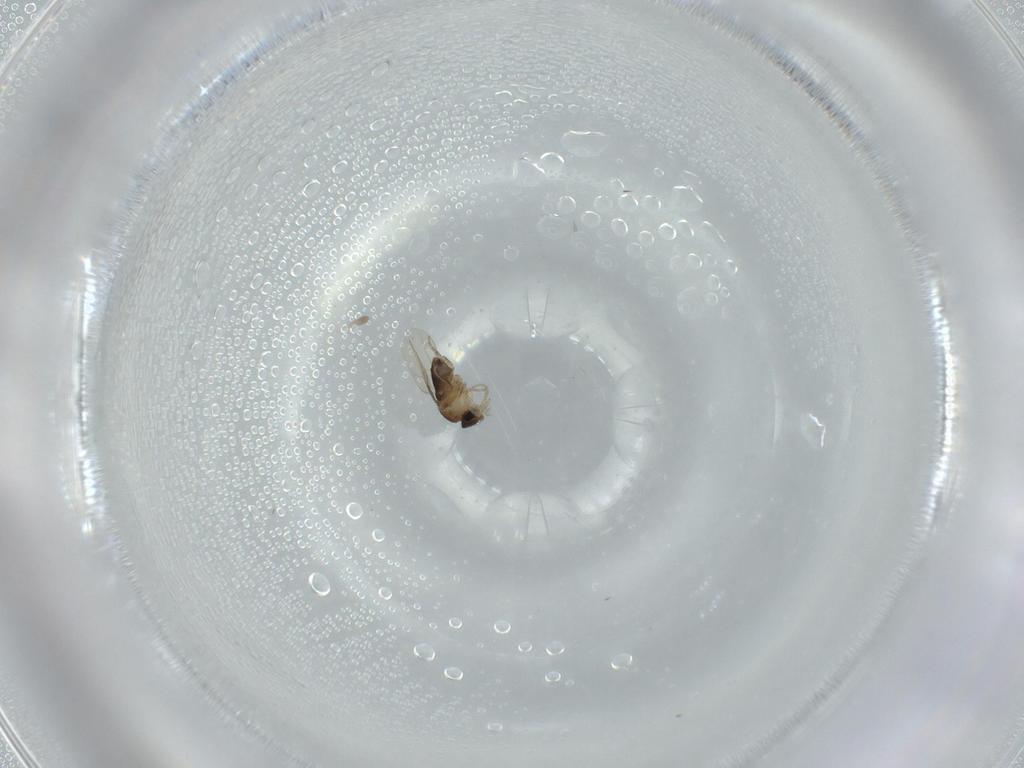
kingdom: Animalia
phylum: Arthropoda
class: Insecta
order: Diptera
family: Phoridae
